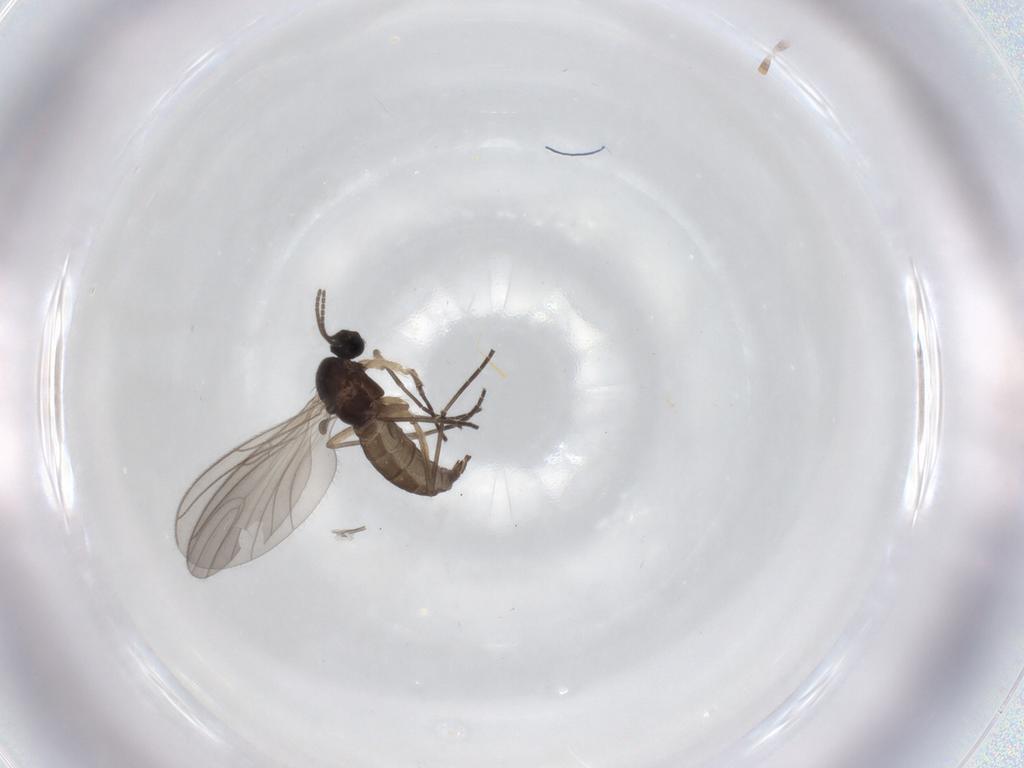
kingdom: Animalia
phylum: Arthropoda
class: Insecta
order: Diptera
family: Sciaridae
